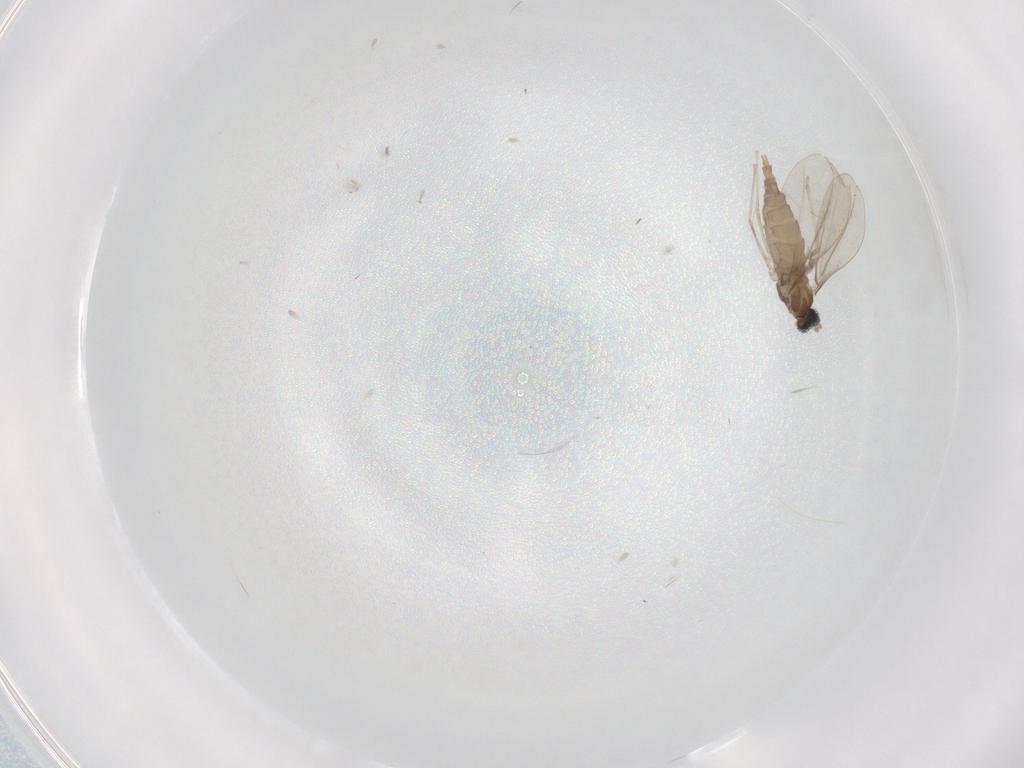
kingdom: Animalia
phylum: Arthropoda
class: Insecta
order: Diptera
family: Cecidomyiidae
